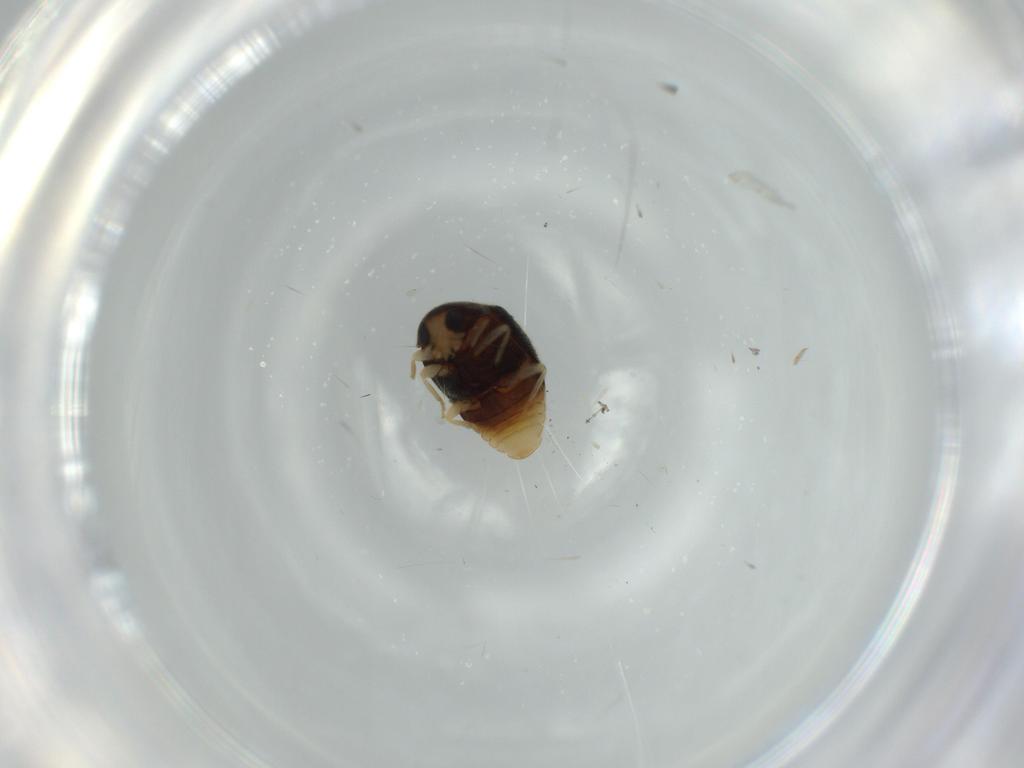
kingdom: Animalia
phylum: Arthropoda
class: Insecta
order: Coleoptera
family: Coccinellidae
